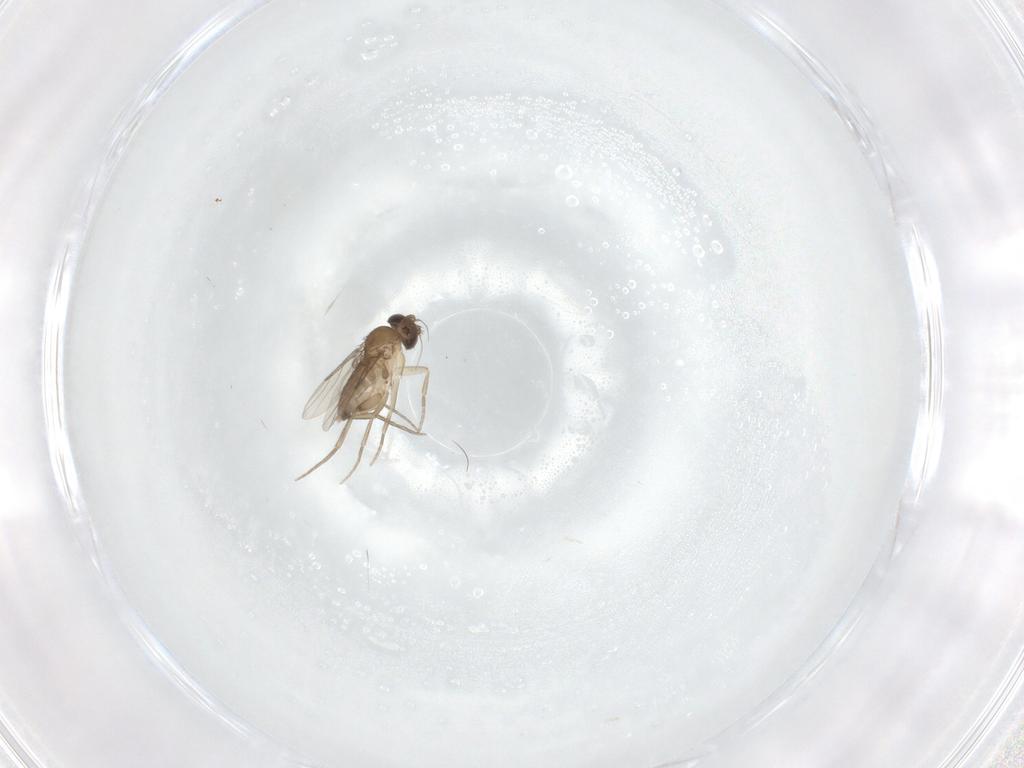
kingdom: Animalia
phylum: Arthropoda
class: Insecta
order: Diptera
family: Phoridae
